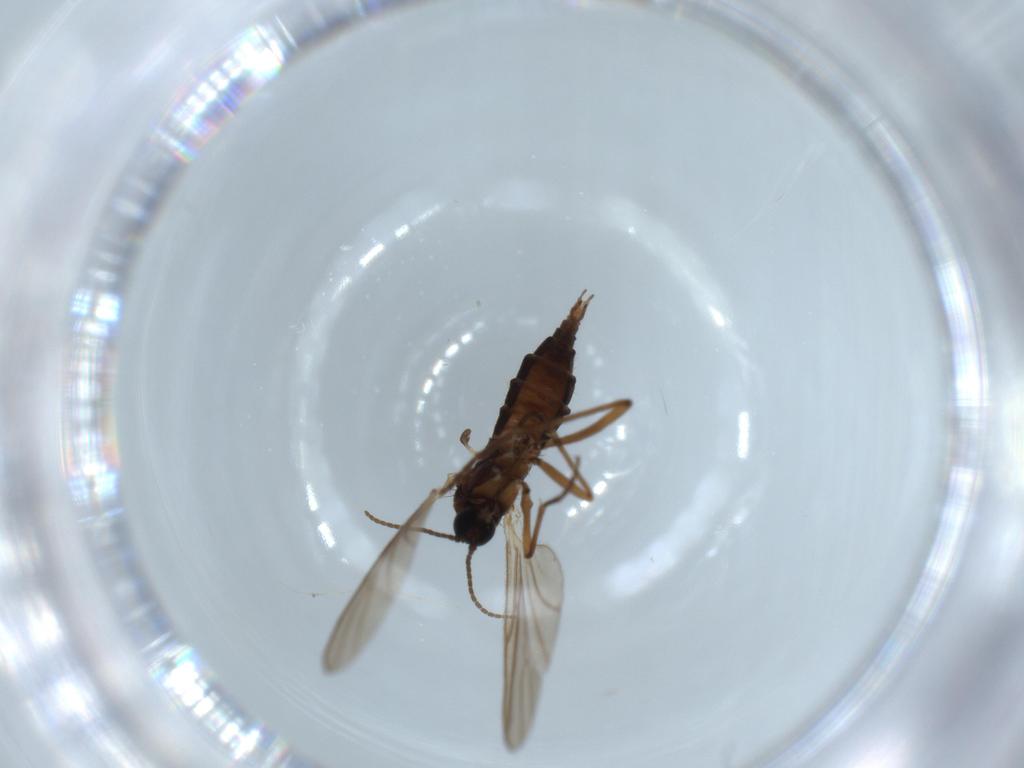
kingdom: Animalia
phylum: Arthropoda
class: Insecta
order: Diptera
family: Sciaridae
